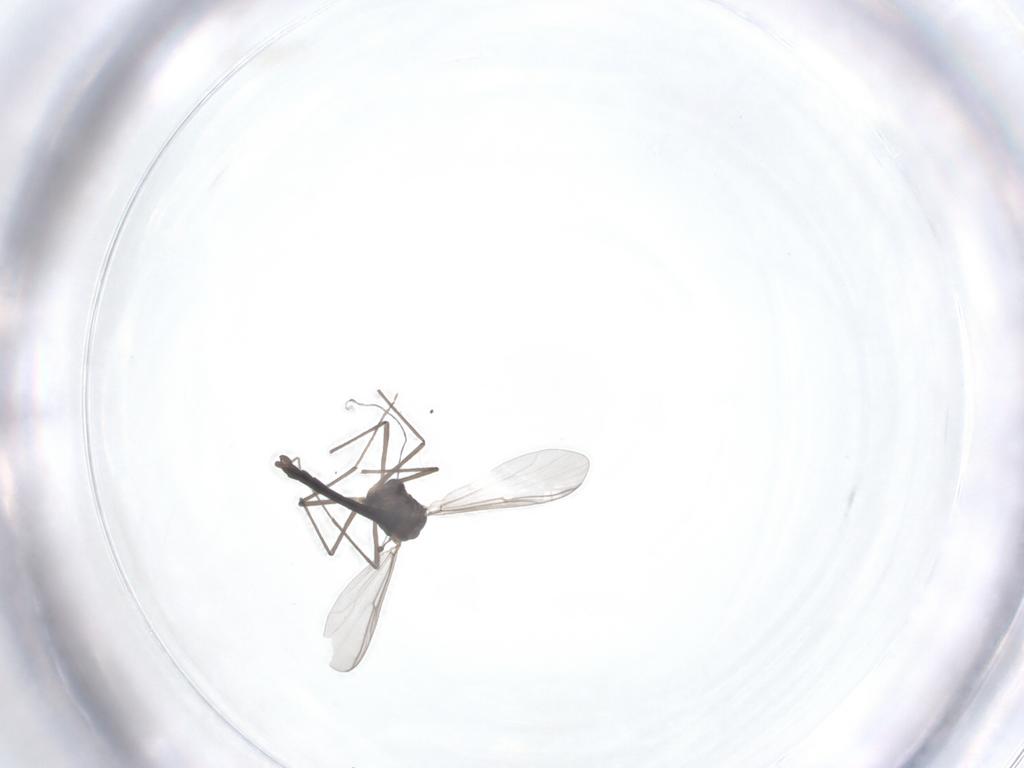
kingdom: Animalia
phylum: Arthropoda
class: Insecta
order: Diptera
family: Chironomidae
